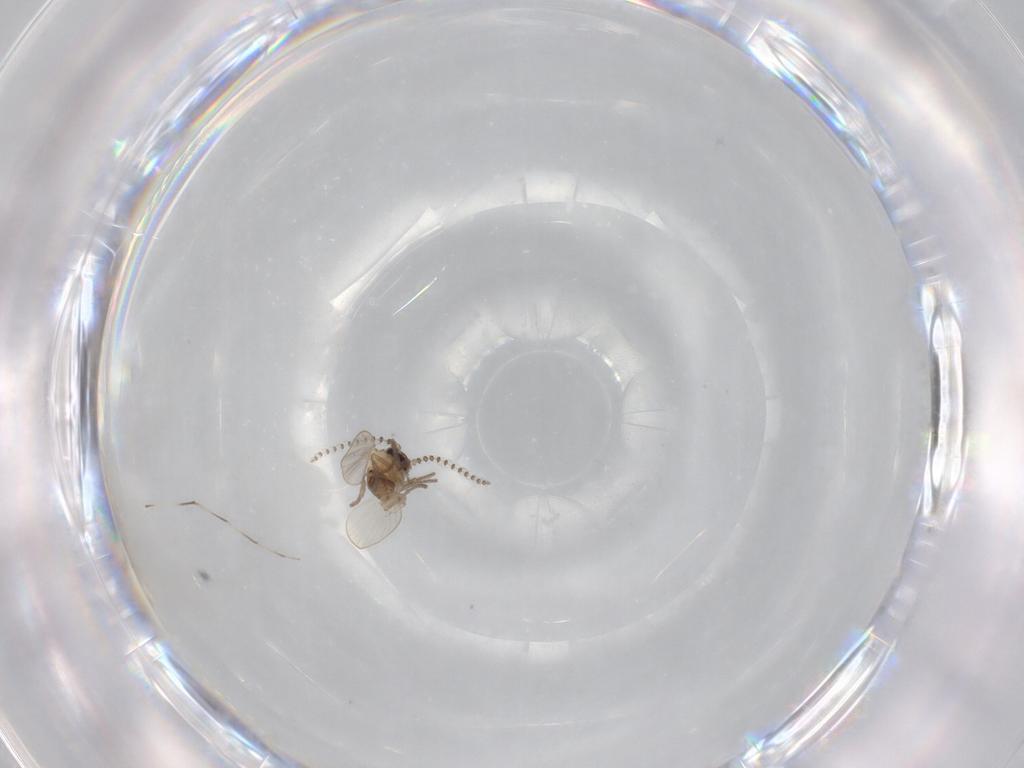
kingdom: Animalia
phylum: Arthropoda
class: Insecta
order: Diptera
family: Psychodidae
